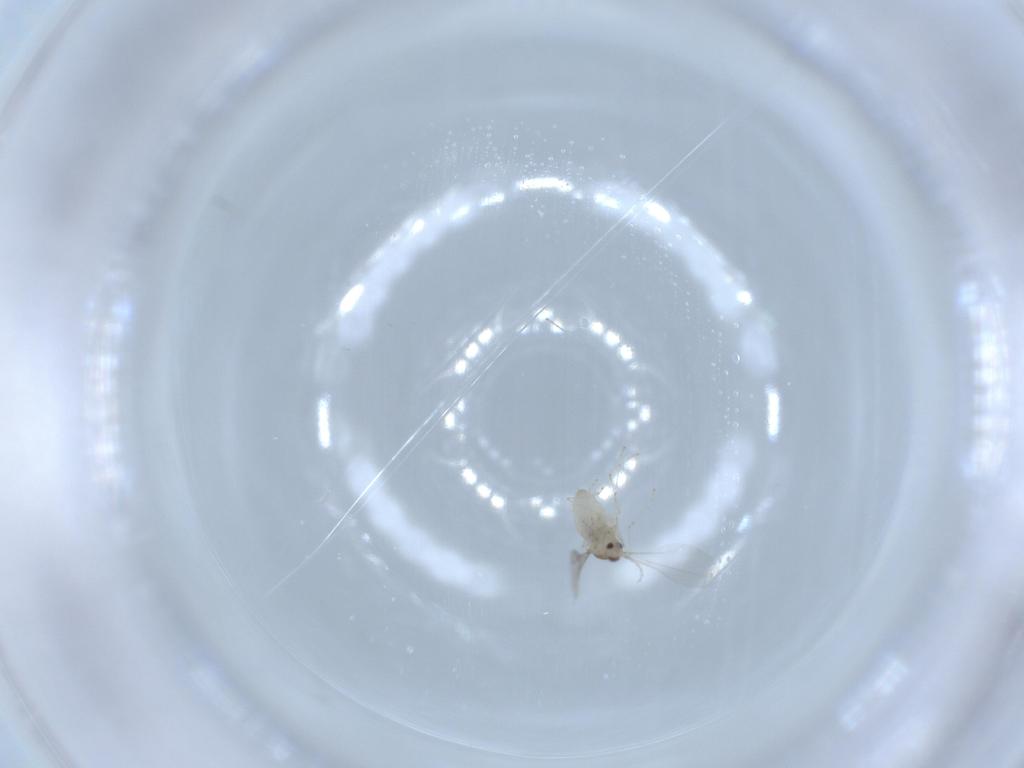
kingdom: Animalia
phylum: Arthropoda
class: Insecta
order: Diptera
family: Cecidomyiidae
